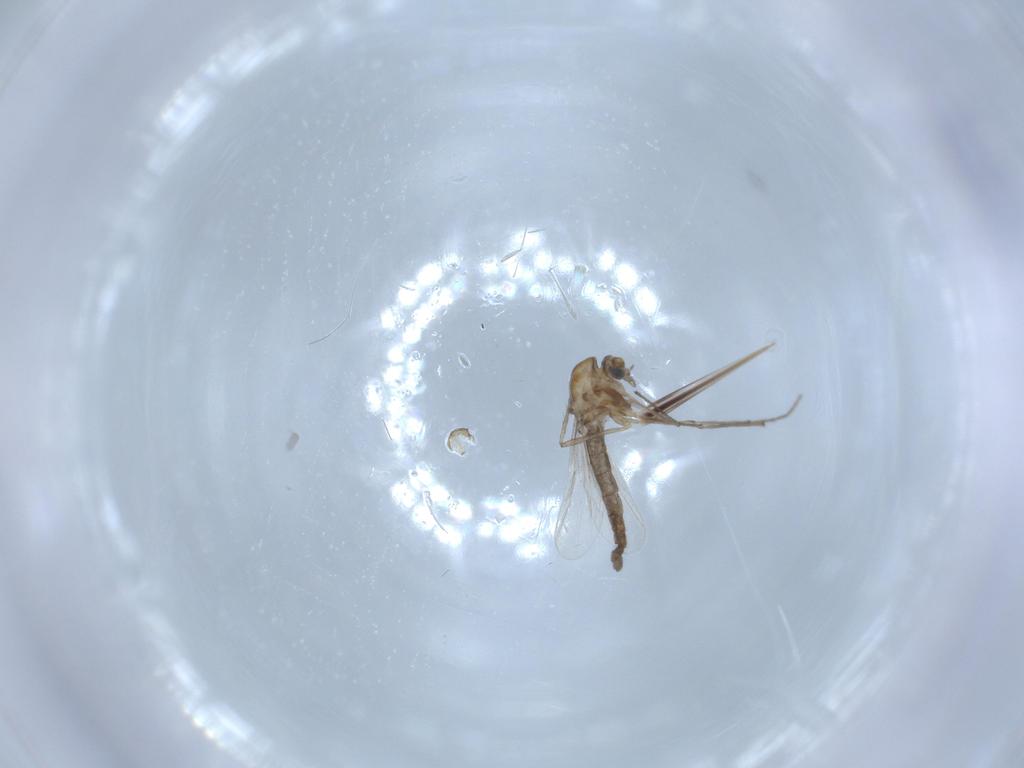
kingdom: Animalia
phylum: Arthropoda
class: Insecta
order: Diptera
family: Chironomidae
